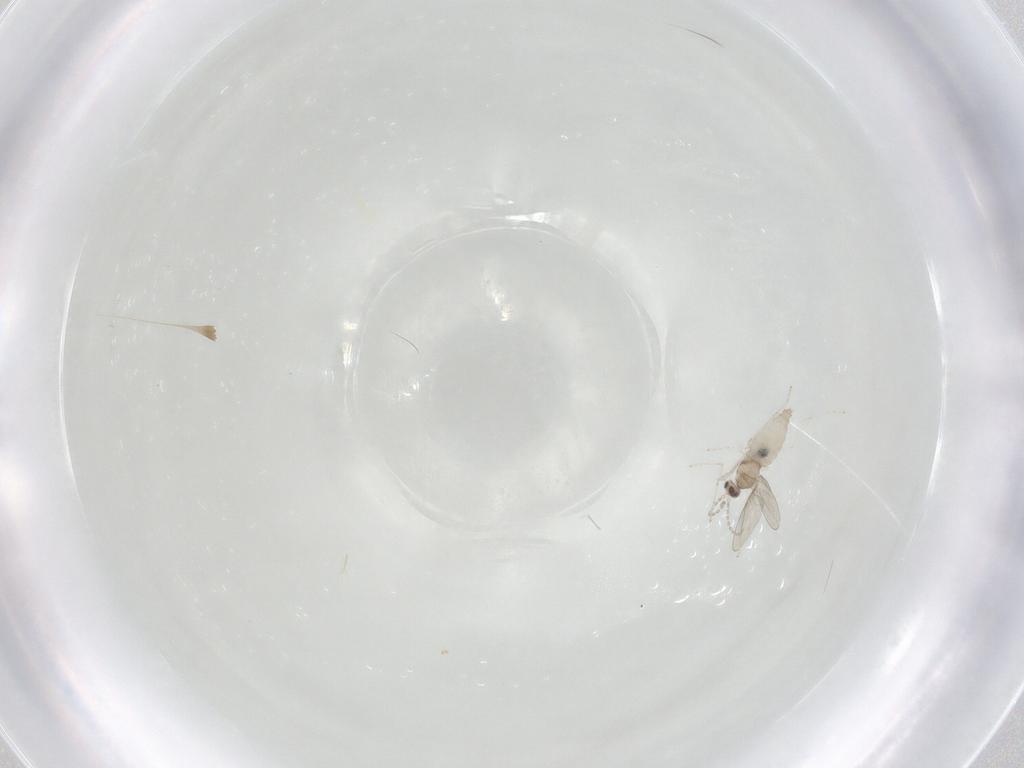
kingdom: Animalia
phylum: Arthropoda
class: Insecta
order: Diptera
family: Cecidomyiidae
